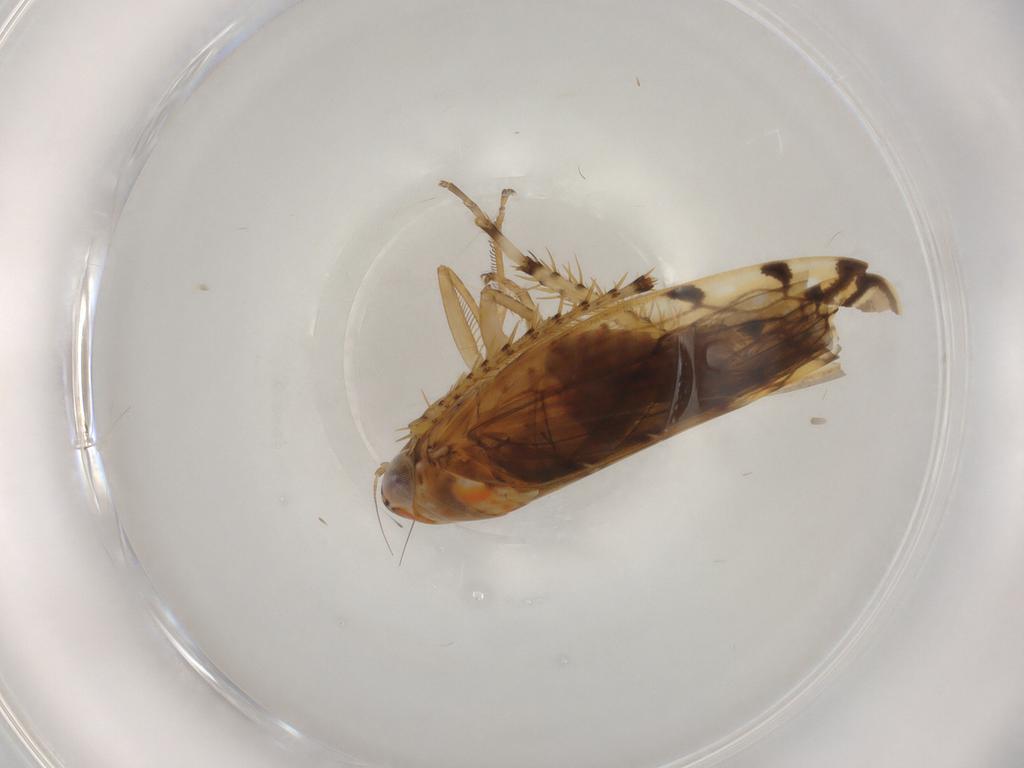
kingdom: Animalia
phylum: Arthropoda
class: Insecta
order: Hemiptera
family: Cicadellidae
